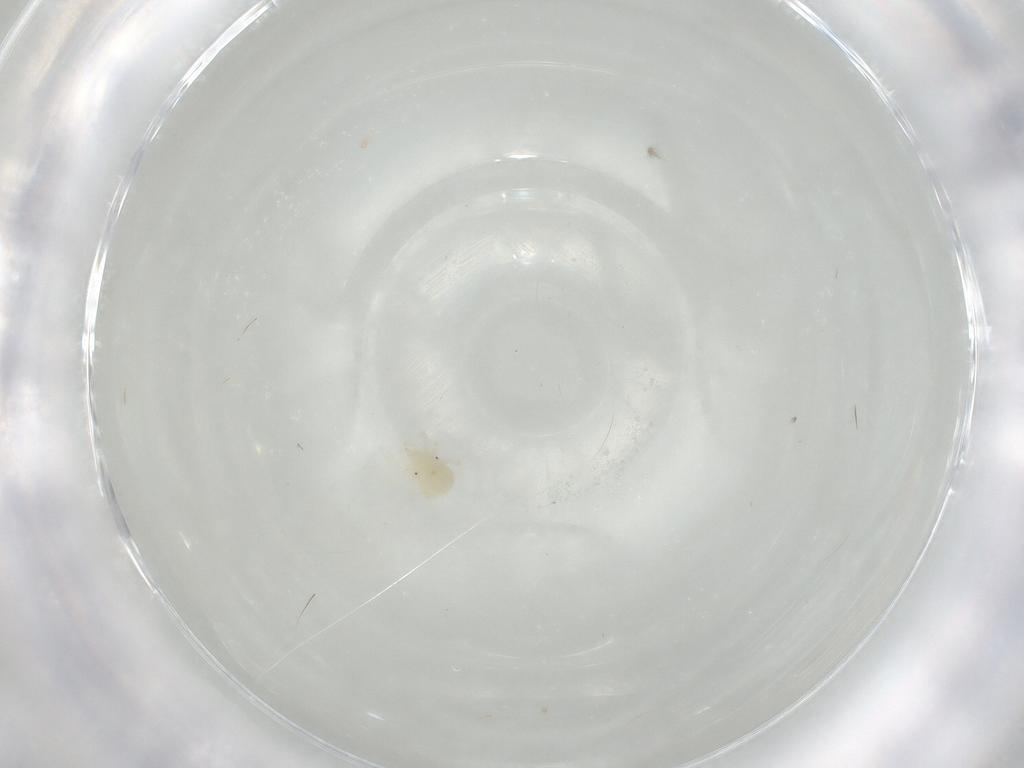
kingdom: Animalia
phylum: Arthropoda
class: Arachnida
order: Trombidiformes
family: Anystidae
